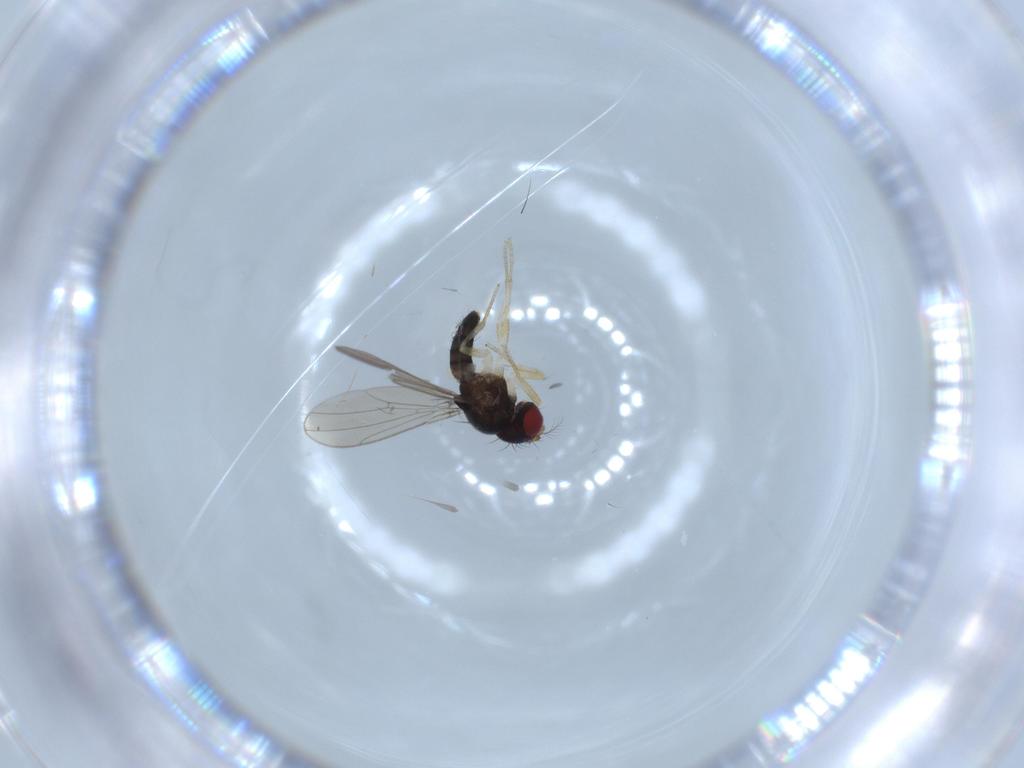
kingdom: Animalia
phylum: Arthropoda
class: Insecta
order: Diptera
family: Drosophilidae
